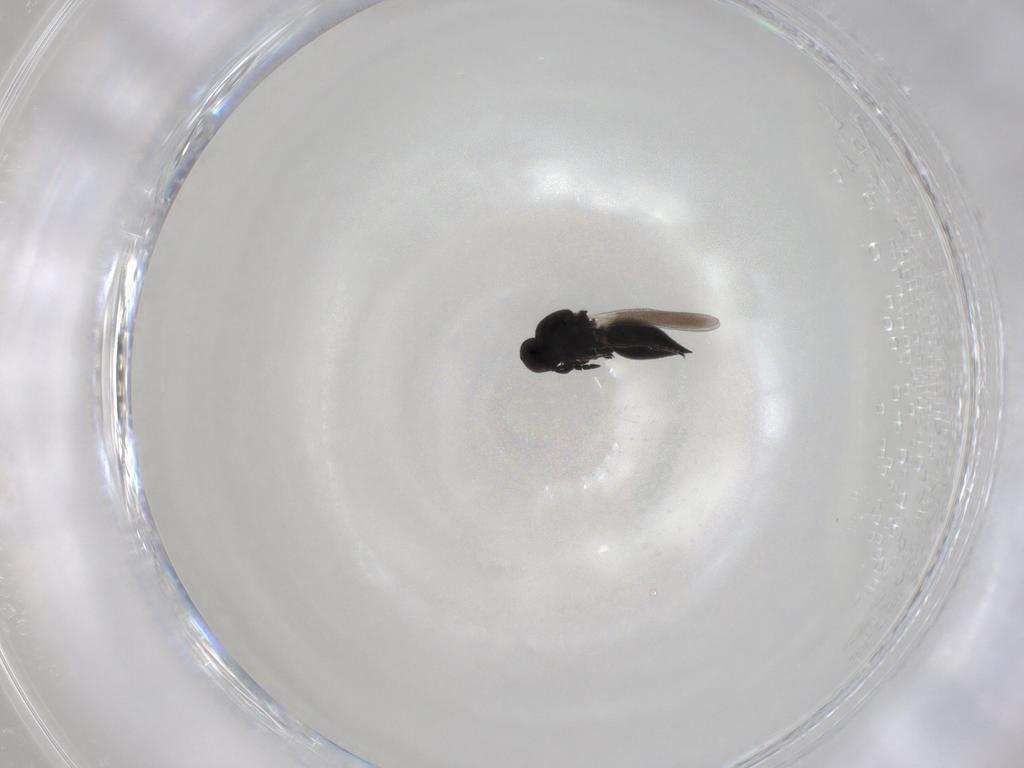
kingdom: Animalia
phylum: Arthropoda
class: Insecta
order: Hymenoptera
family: Platygastridae
